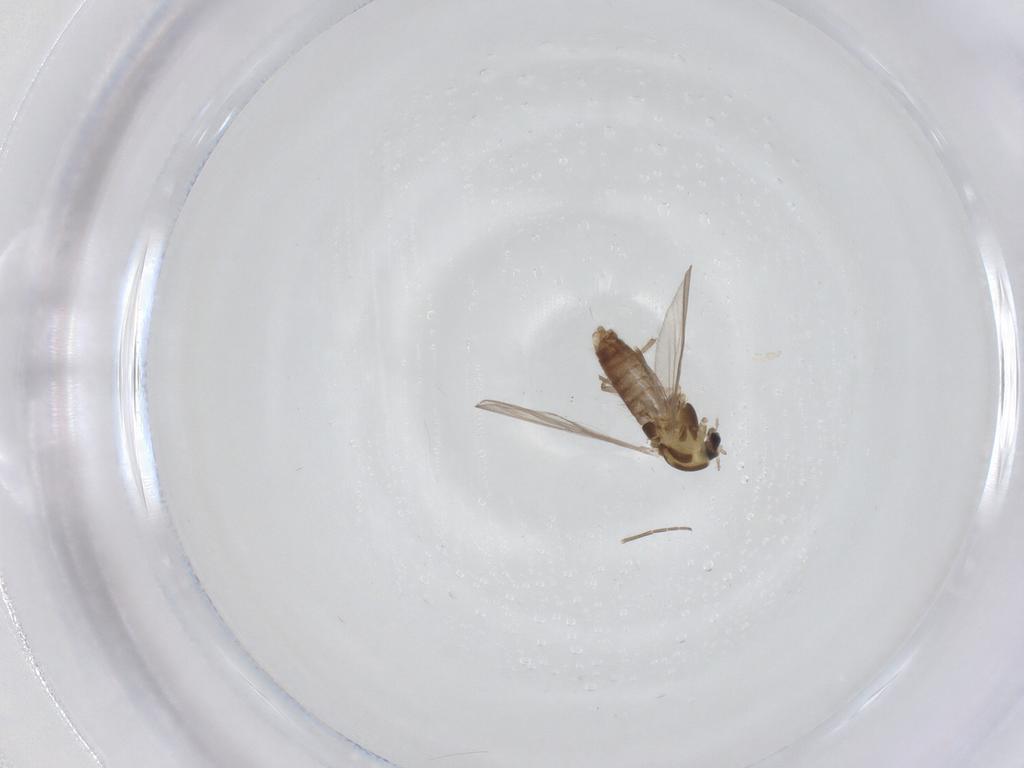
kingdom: Animalia
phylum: Arthropoda
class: Insecta
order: Diptera
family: Chironomidae
